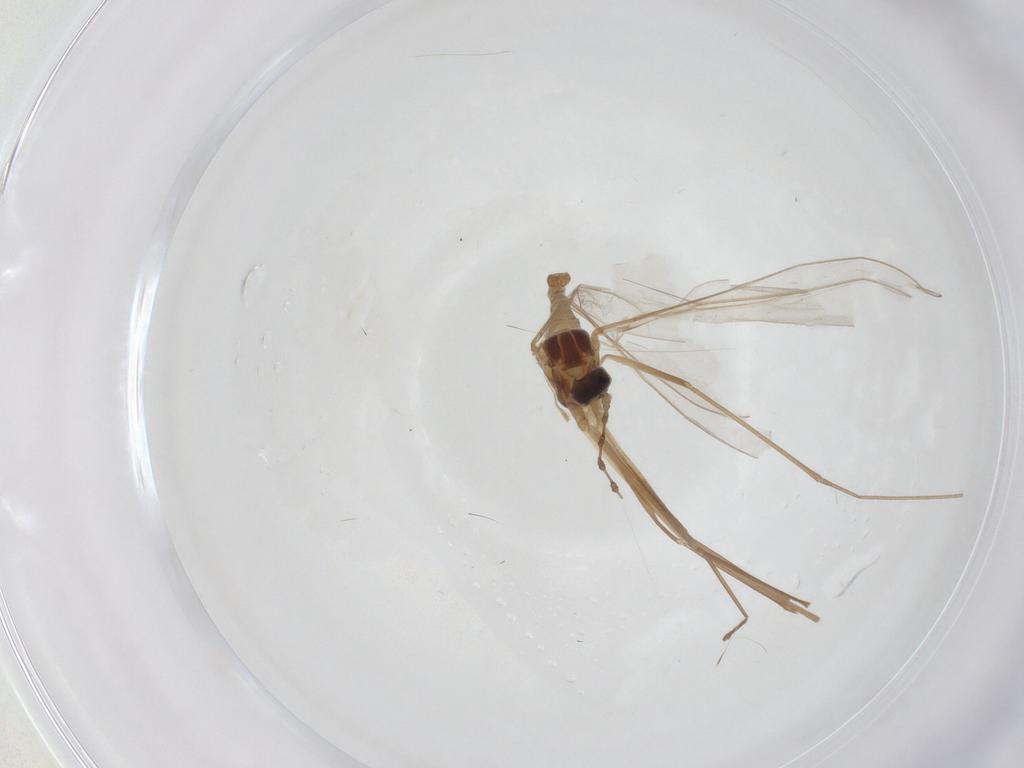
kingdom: Animalia
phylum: Arthropoda
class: Insecta
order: Diptera
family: Cecidomyiidae
